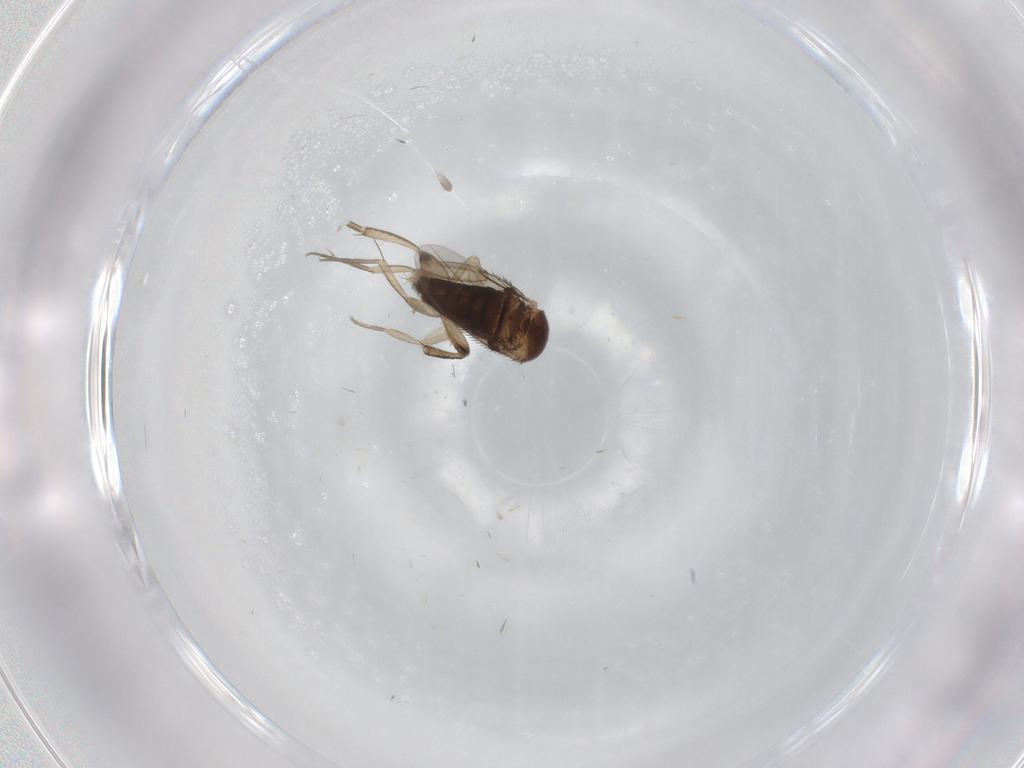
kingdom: Animalia
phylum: Arthropoda
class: Insecta
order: Diptera
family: Phoridae
